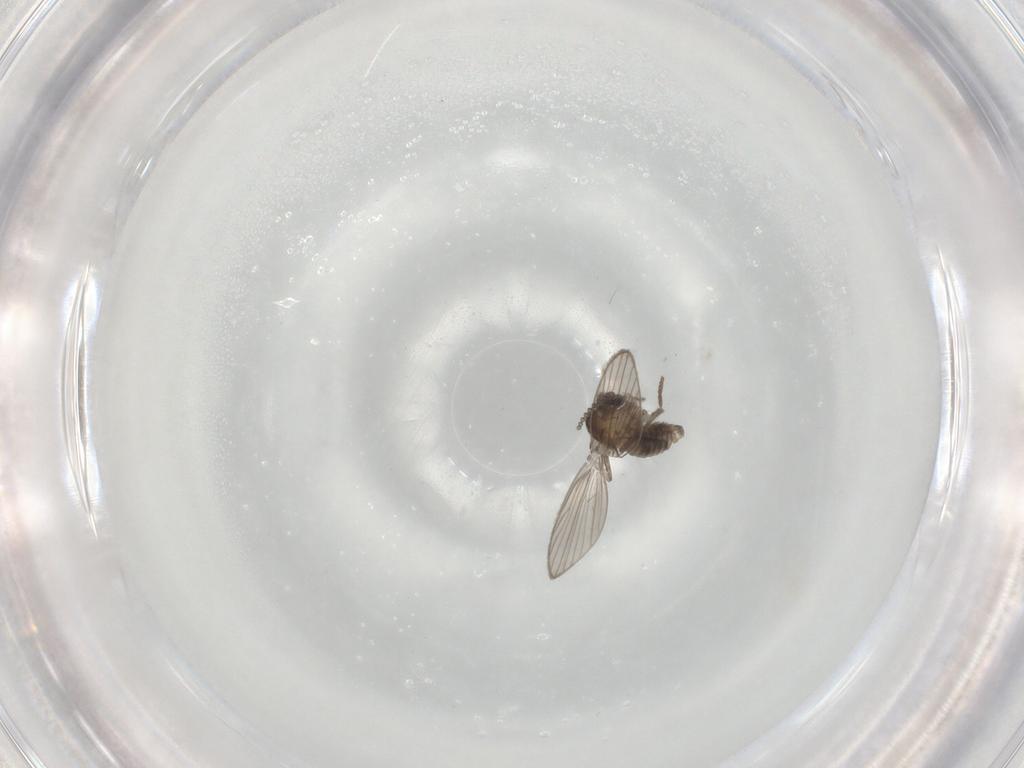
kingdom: Animalia
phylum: Arthropoda
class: Insecta
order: Diptera
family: Psychodidae
